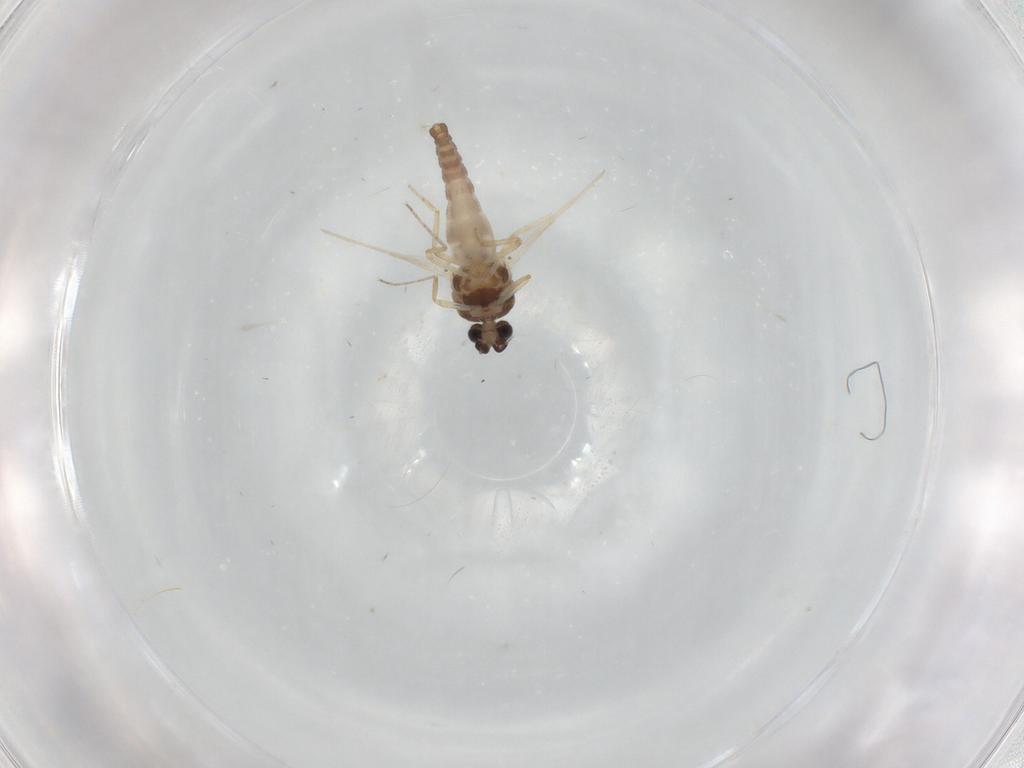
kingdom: Animalia
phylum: Arthropoda
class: Insecta
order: Diptera
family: Ceratopogonidae
